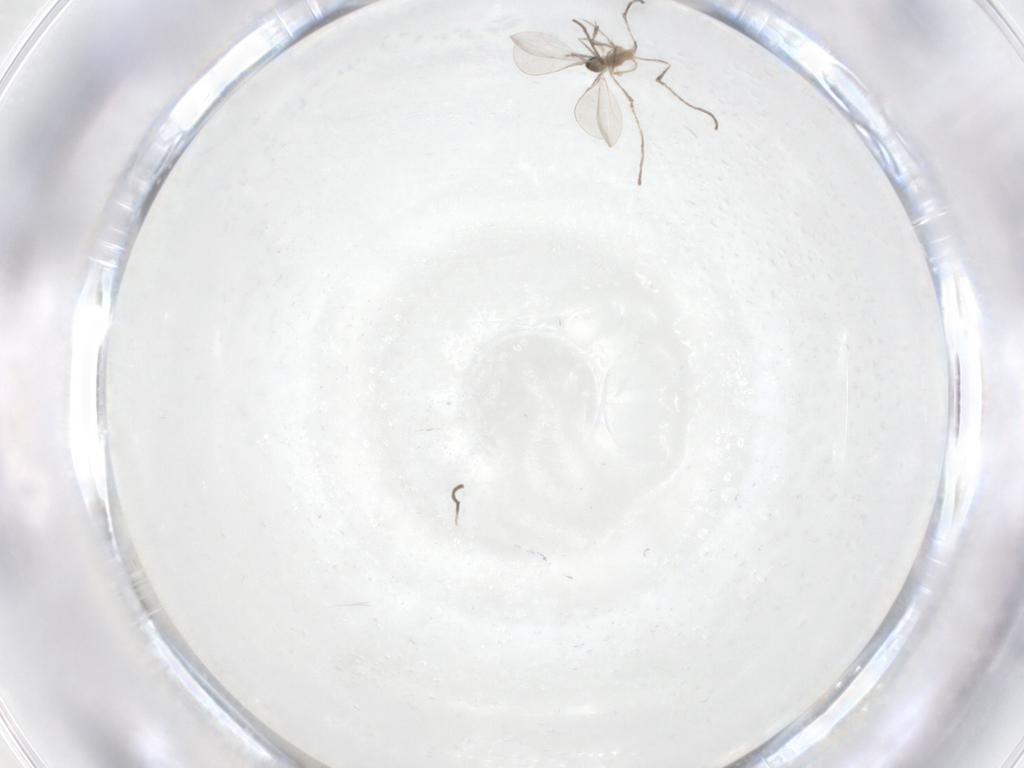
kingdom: Animalia
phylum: Arthropoda
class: Insecta
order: Diptera
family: Cecidomyiidae
